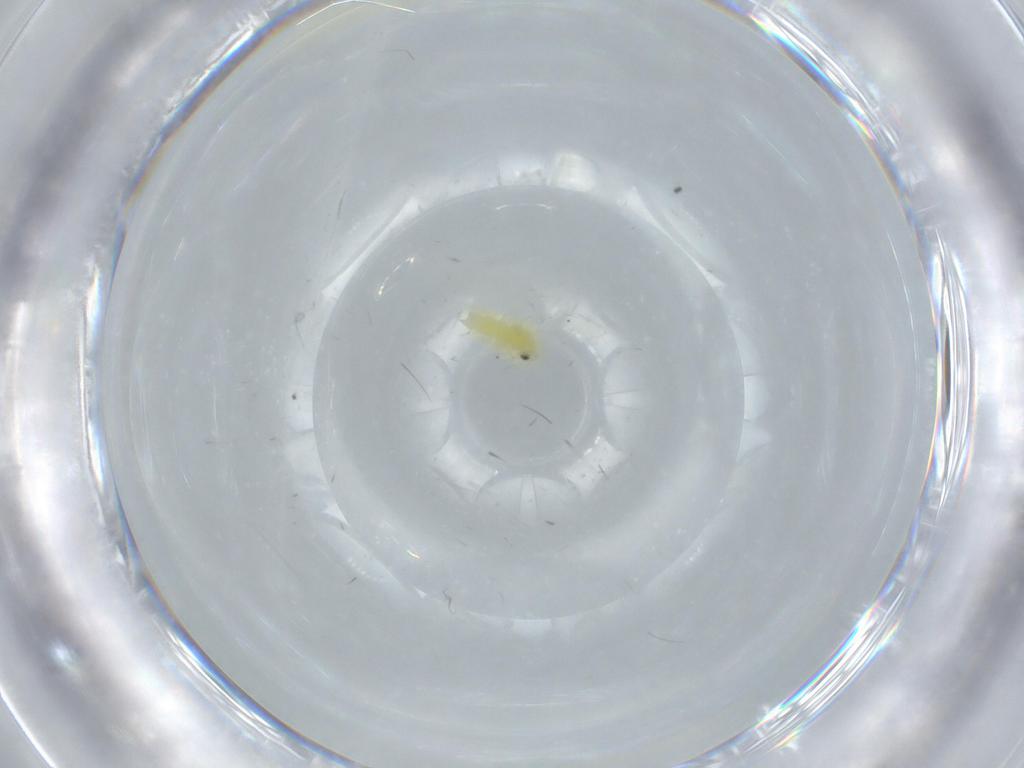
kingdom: Animalia
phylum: Arthropoda
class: Insecta
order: Hemiptera
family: Aleyrodidae
